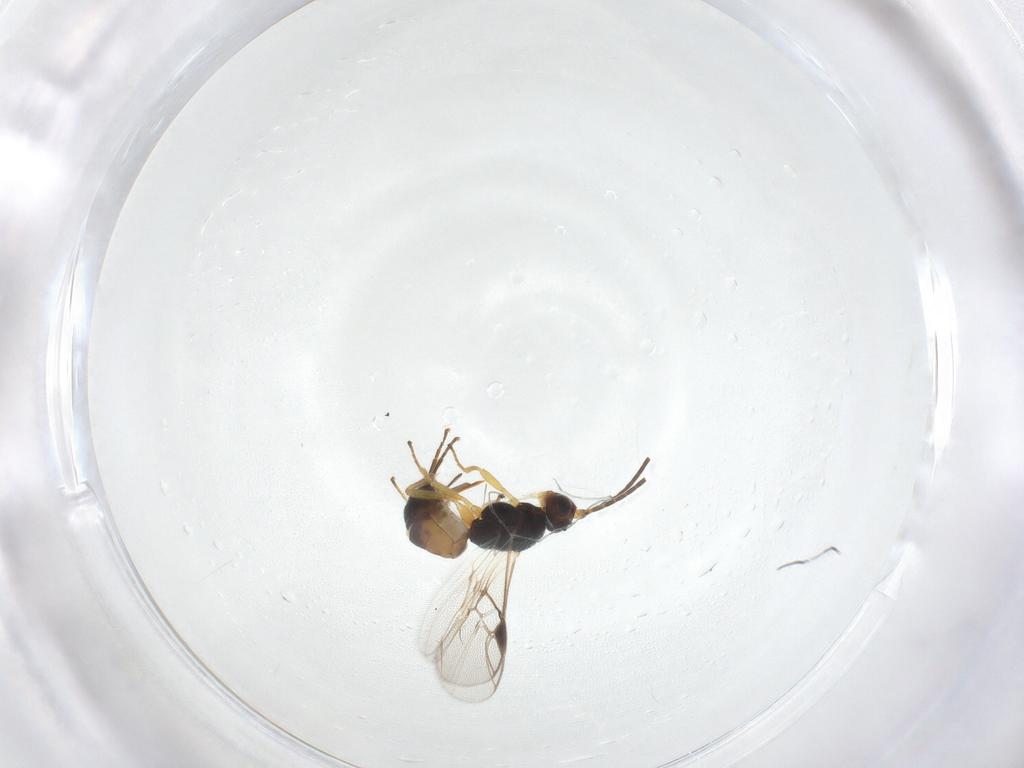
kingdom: Animalia
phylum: Arthropoda
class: Insecta
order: Hymenoptera
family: Braconidae
